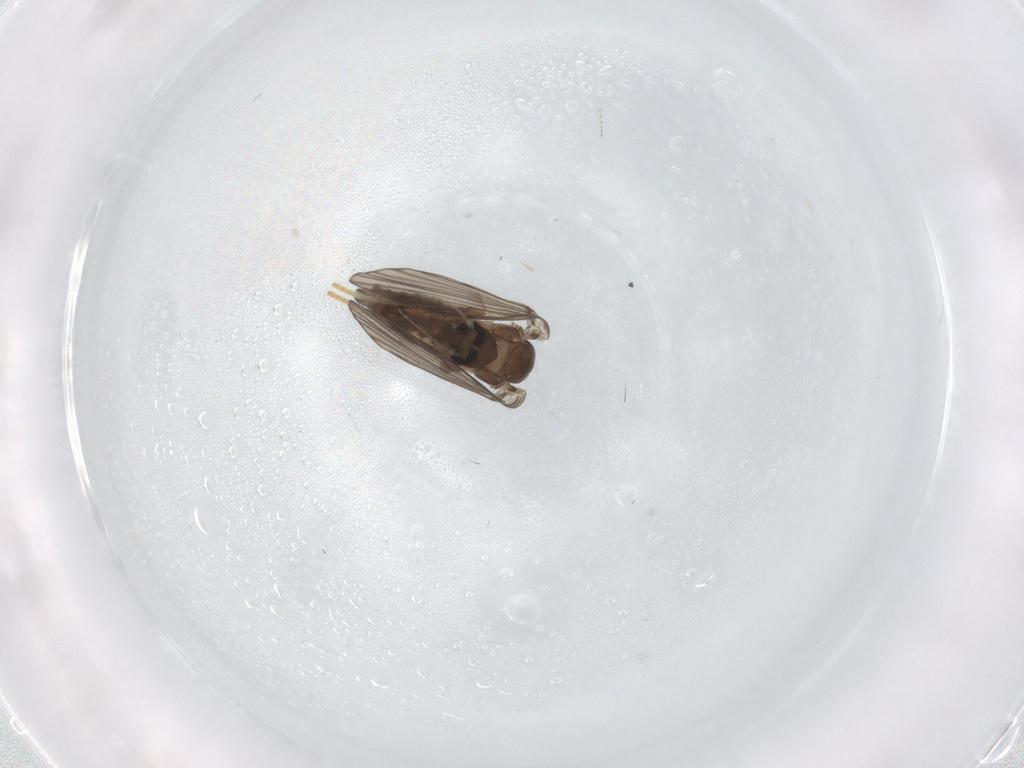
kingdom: Animalia
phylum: Arthropoda
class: Insecta
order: Diptera
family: Psychodidae
